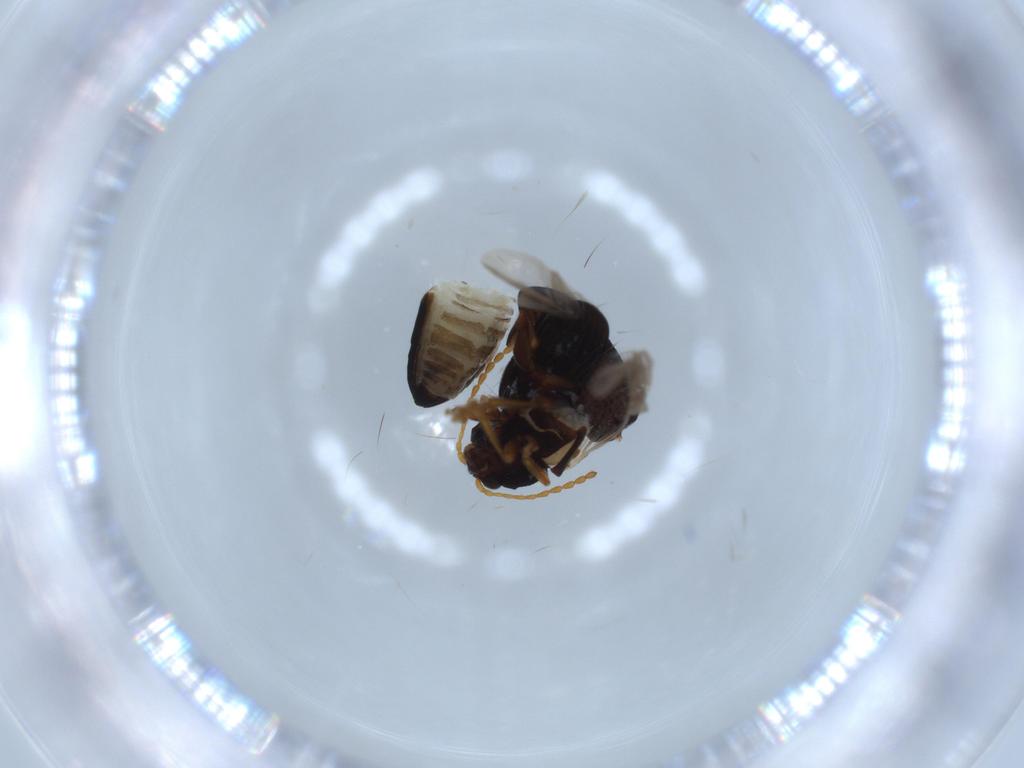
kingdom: Animalia
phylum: Arthropoda
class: Insecta
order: Coleoptera
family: Chrysomelidae
